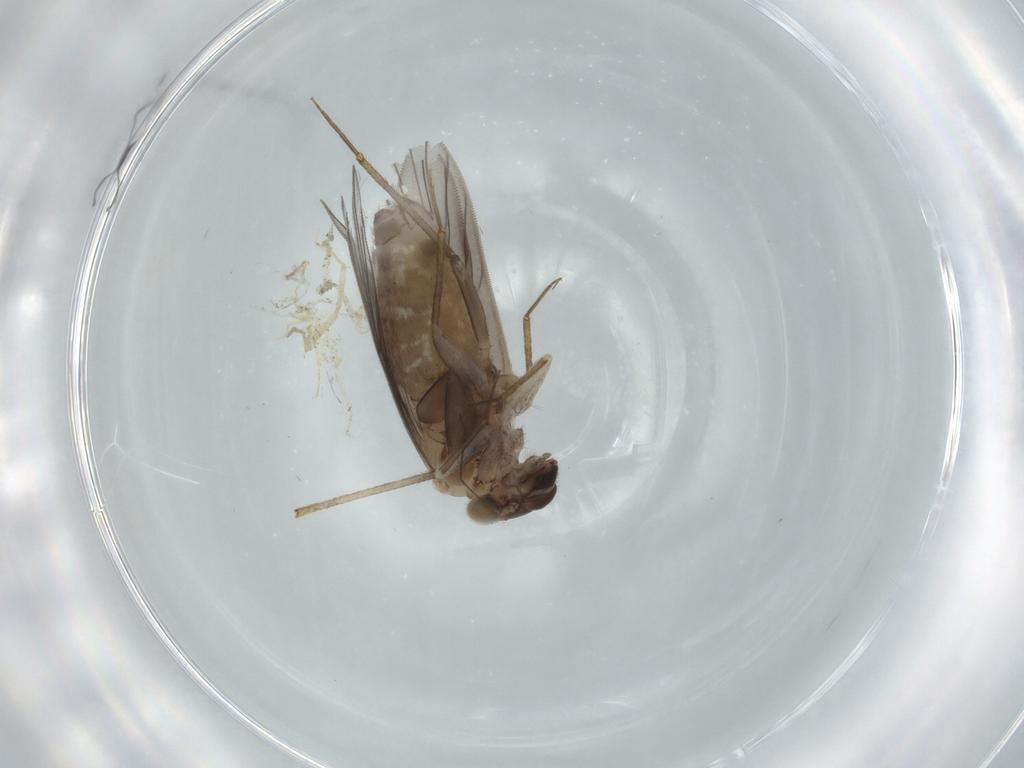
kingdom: Animalia
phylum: Arthropoda
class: Insecta
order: Psocodea
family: Lepidopsocidae
